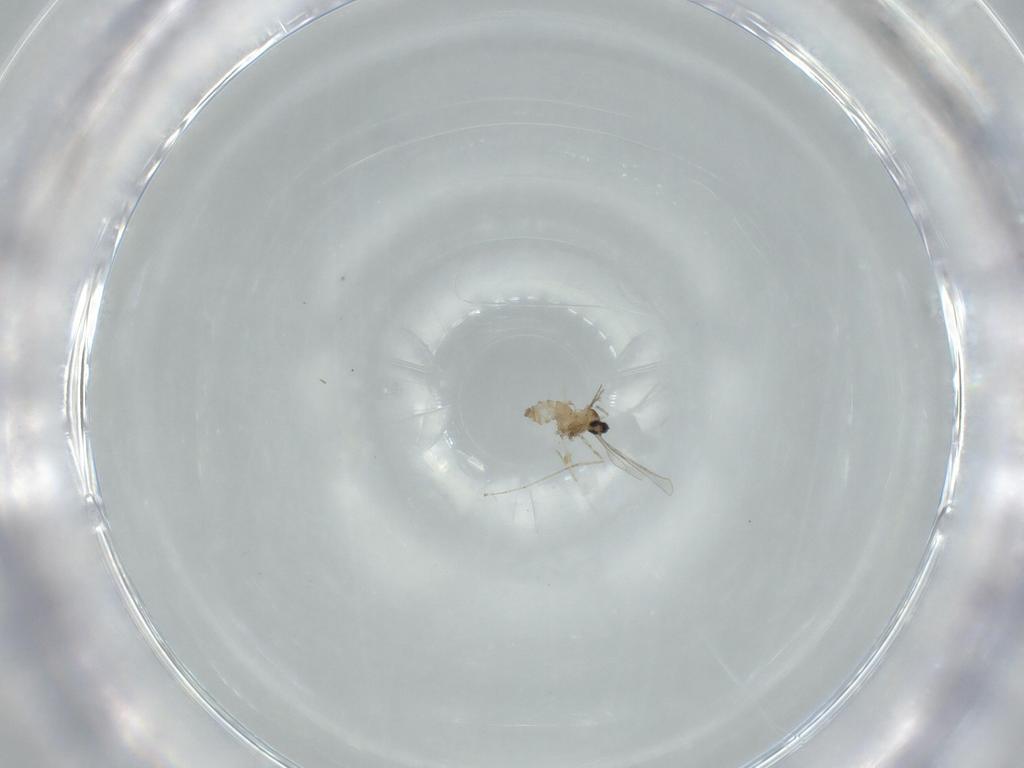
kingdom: Animalia
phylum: Arthropoda
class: Insecta
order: Diptera
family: Cecidomyiidae
